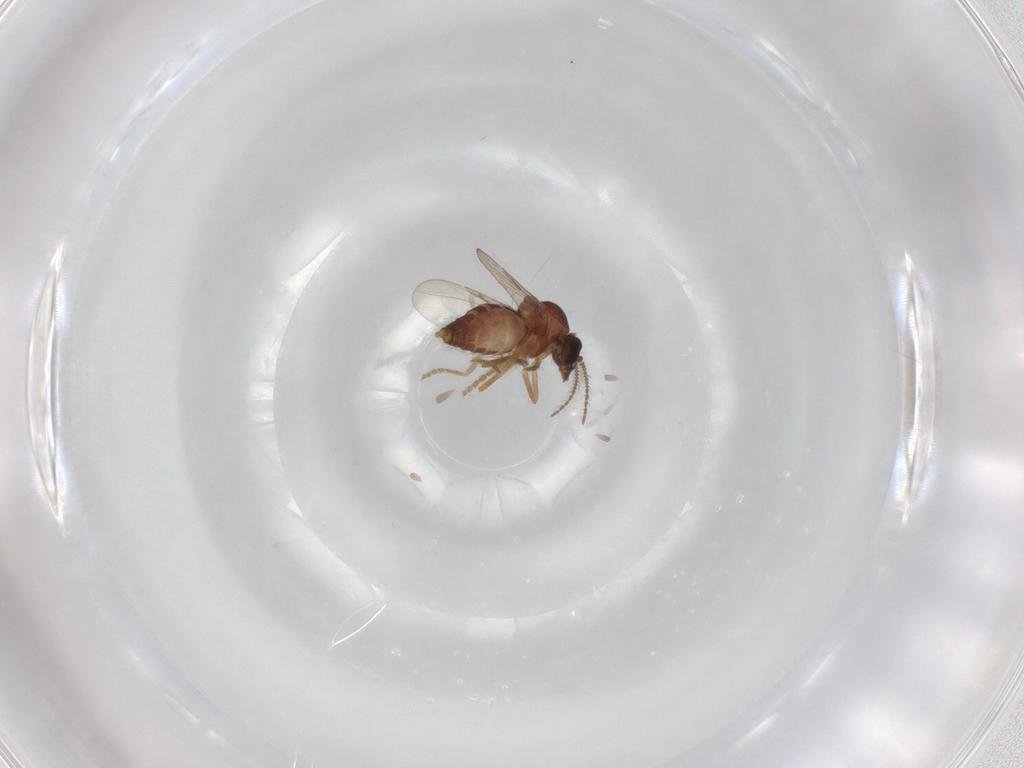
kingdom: Animalia
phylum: Arthropoda
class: Insecta
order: Diptera
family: Ceratopogonidae
